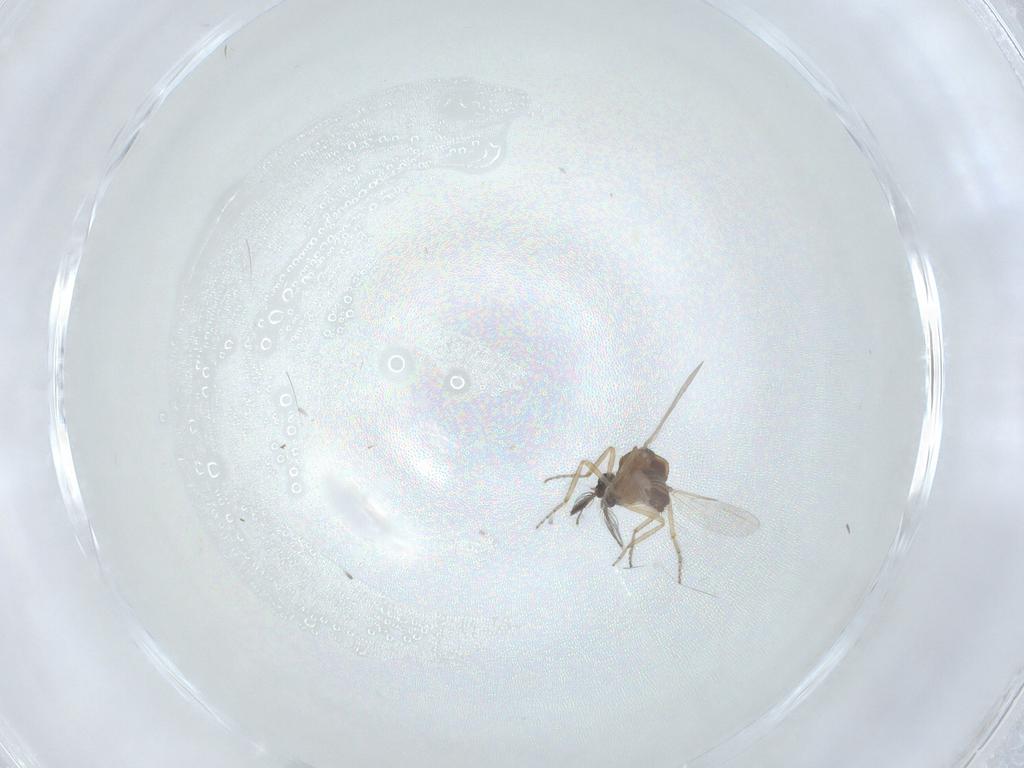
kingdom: Animalia
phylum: Arthropoda
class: Insecta
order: Diptera
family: Ceratopogonidae
